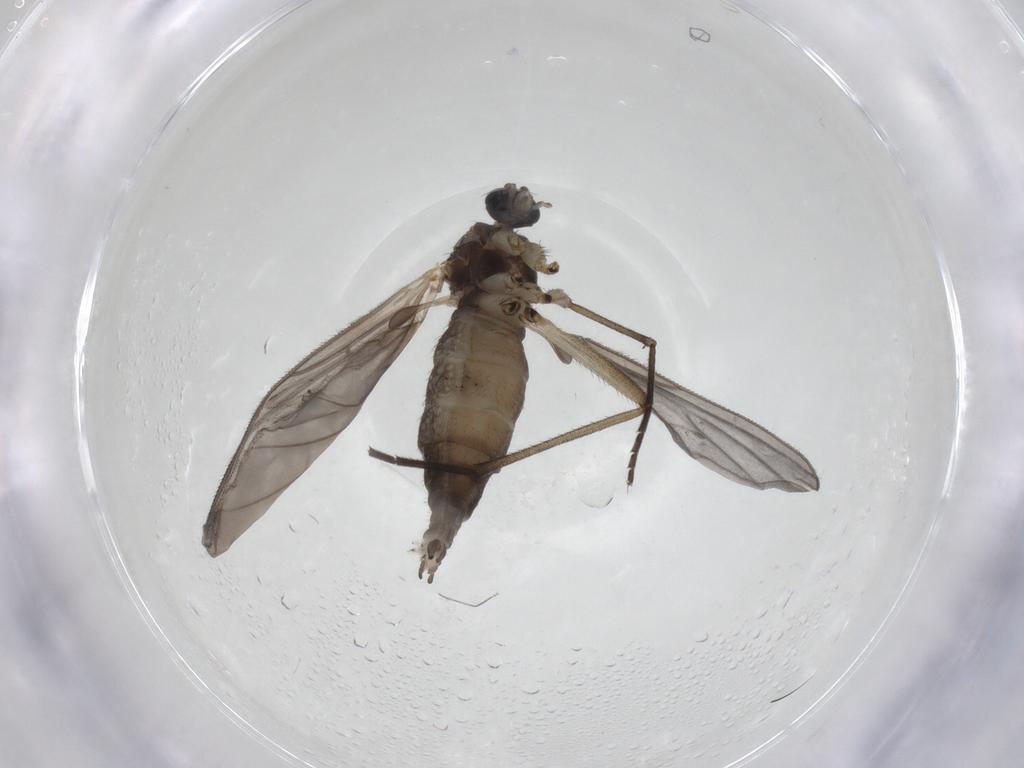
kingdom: Animalia
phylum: Arthropoda
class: Insecta
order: Diptera
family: Sciaridae
